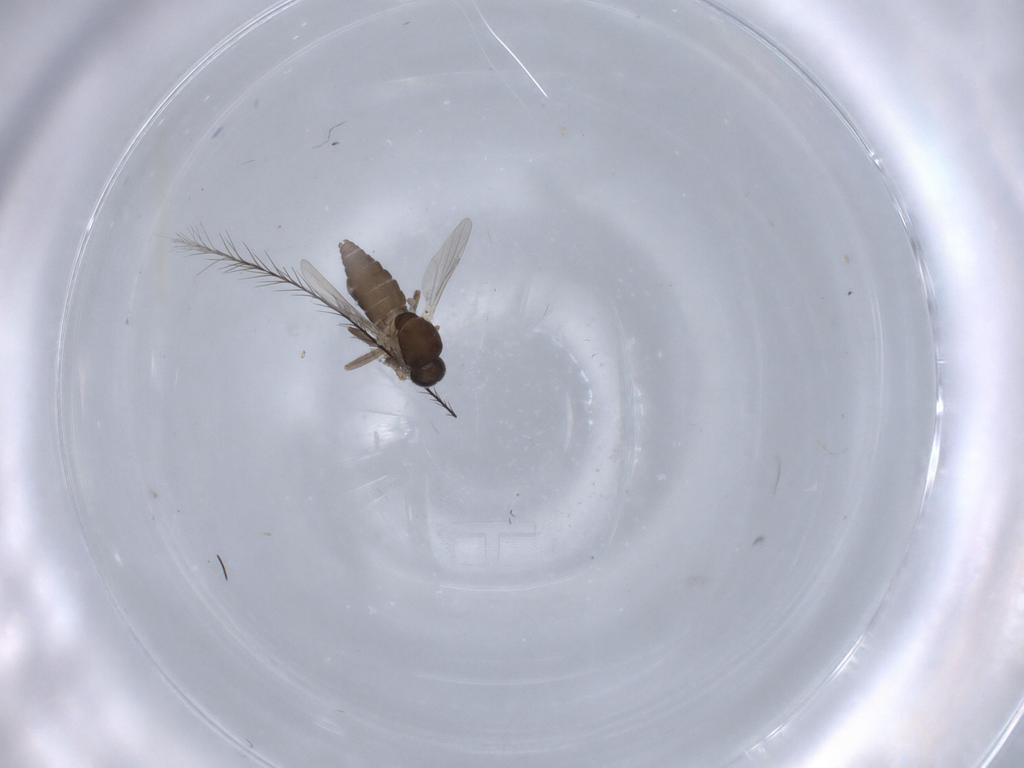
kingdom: Animalia
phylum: Arthropoda
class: Insecta
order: Diptera
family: Ceratopogonidae
